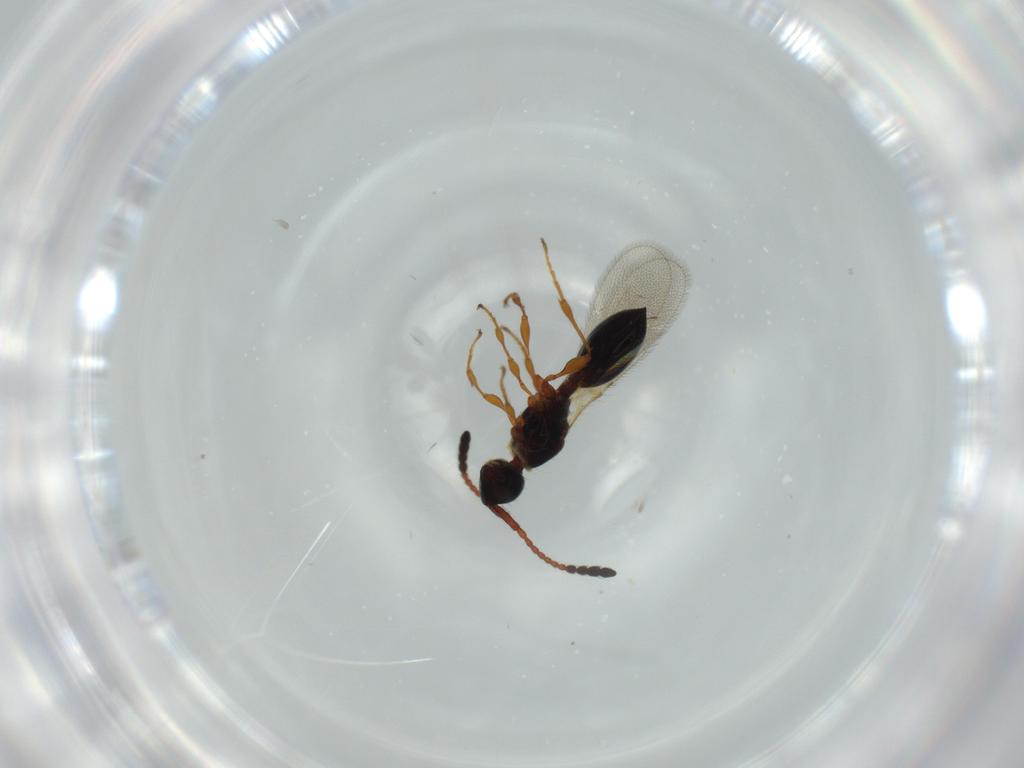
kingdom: Animalia
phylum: Arthropoda
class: Insecta
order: Hymenoptera
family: Diapriidae
